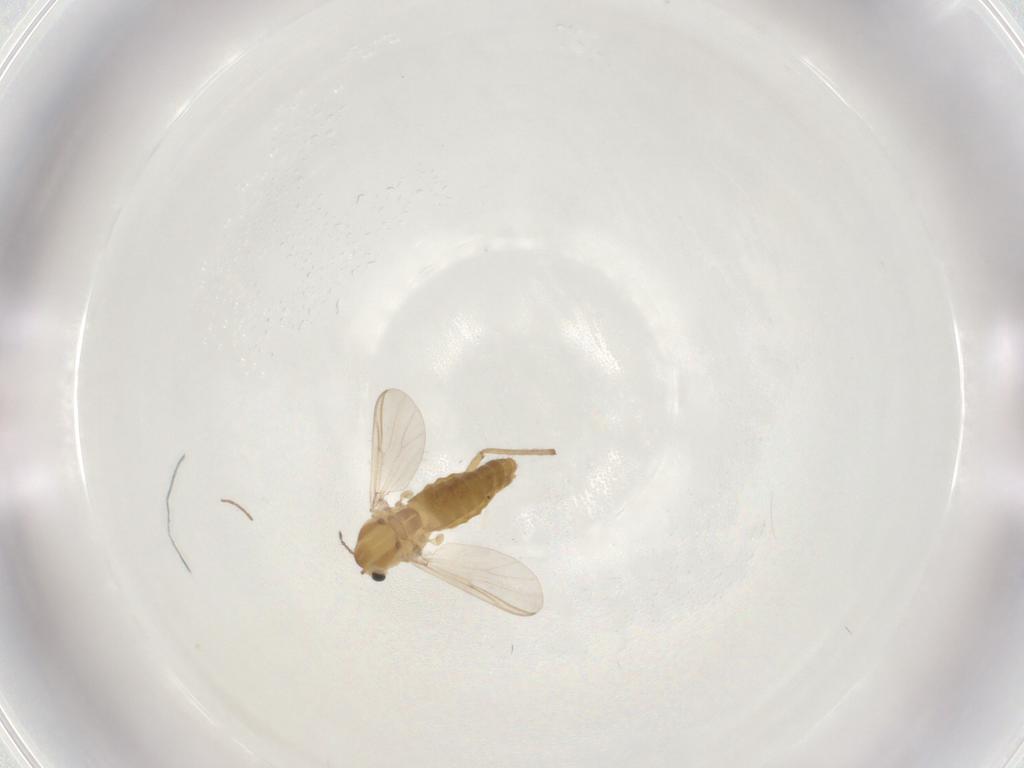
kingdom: Animalia
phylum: Arthropoda
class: Insecta
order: Diptera
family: Chironomidae
